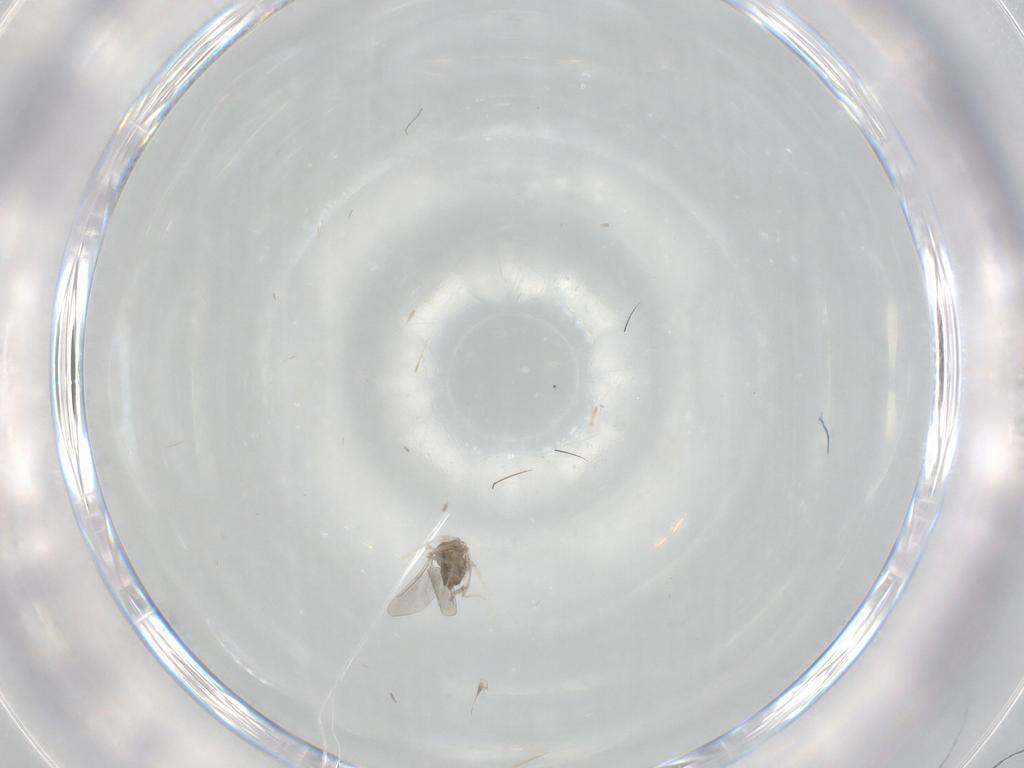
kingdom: Animalia
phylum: Arthropoda
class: Insecta
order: Diptera
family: Cecidomyiidae
